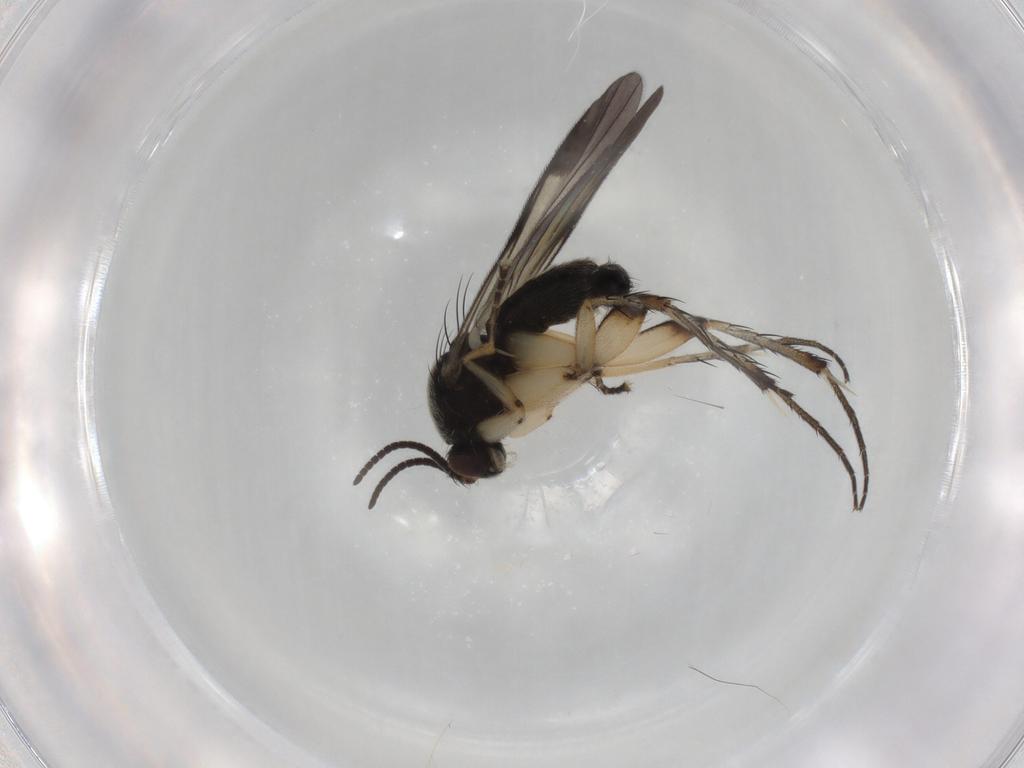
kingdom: Animalia
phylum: Arthropoda
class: Insecta
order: Diptera
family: Mycetophilidae
